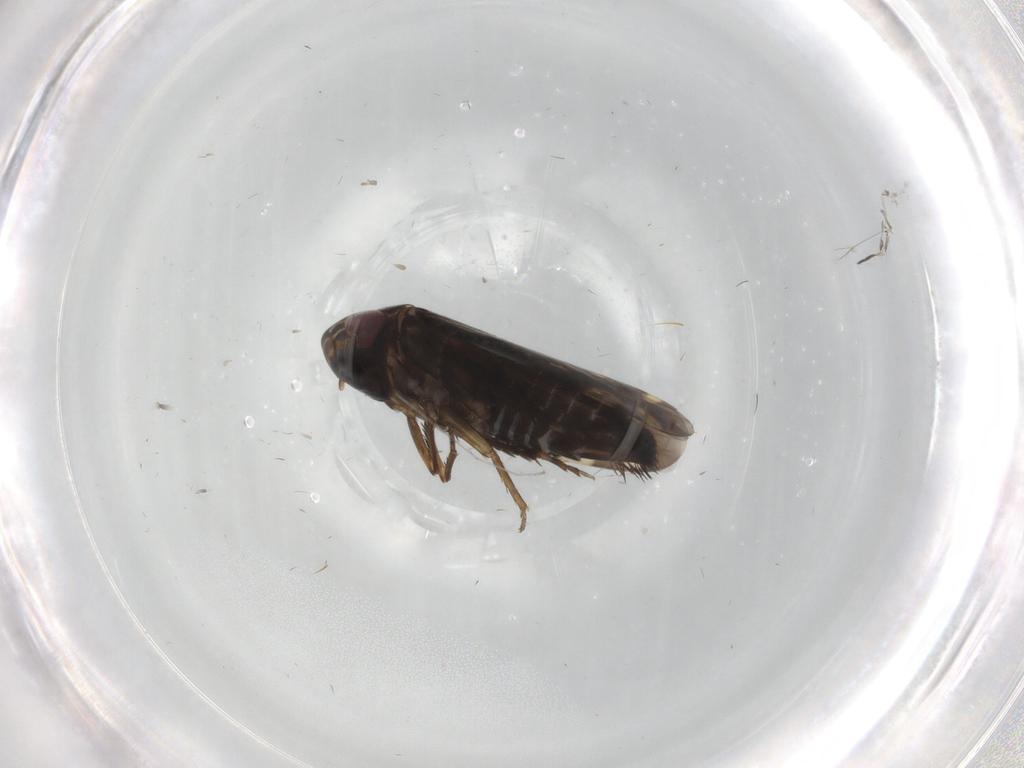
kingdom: Animalia
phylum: Arthropoda
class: Insecta
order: Hemiptera
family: Cicadellidae
